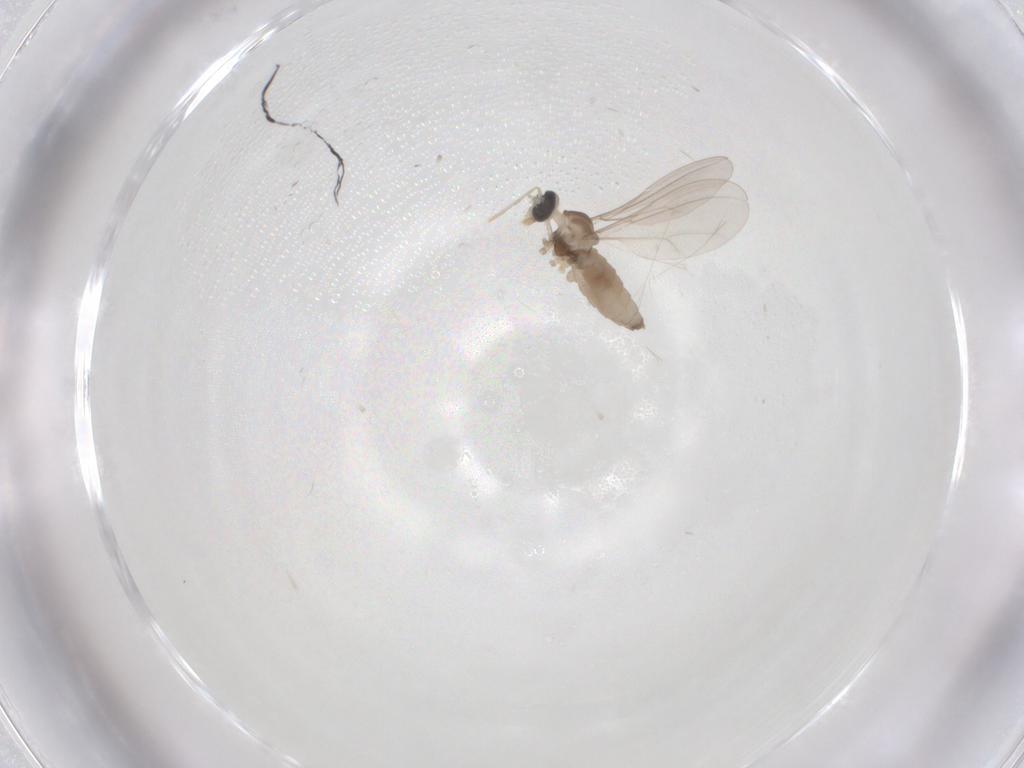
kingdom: Animalia
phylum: Arthropoda
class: Insecta
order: Diptera
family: Cecidomyiidae
